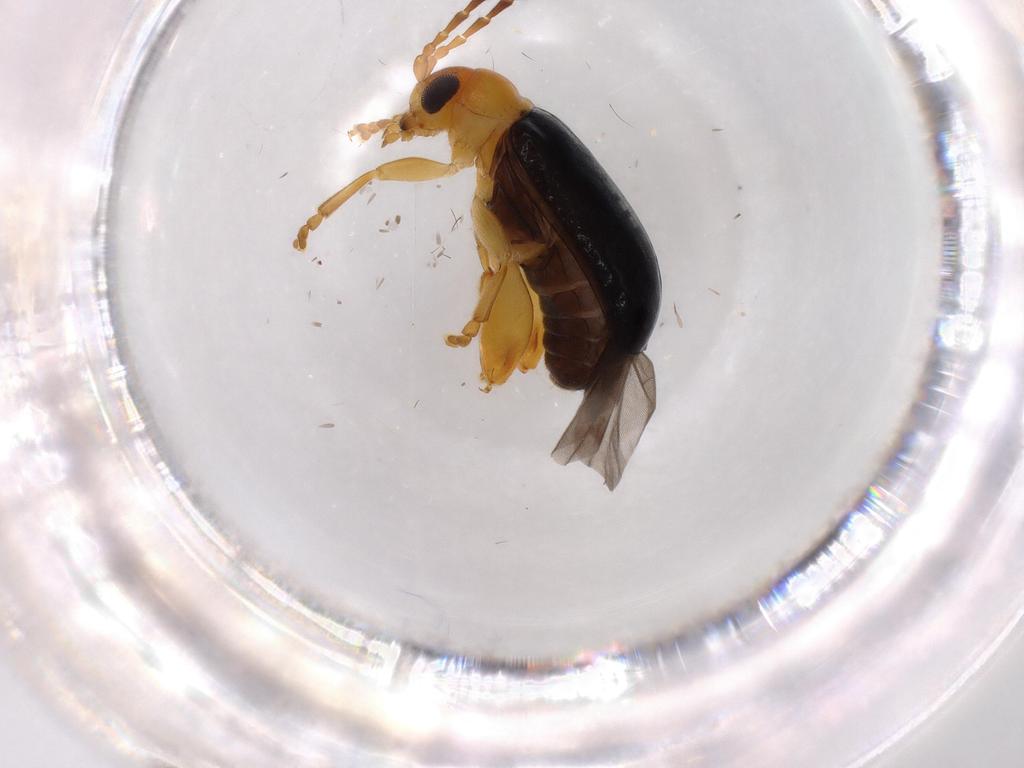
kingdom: Animalia
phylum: Arthropoda
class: Insecta
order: Coleoptera
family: Chrysomelidae
